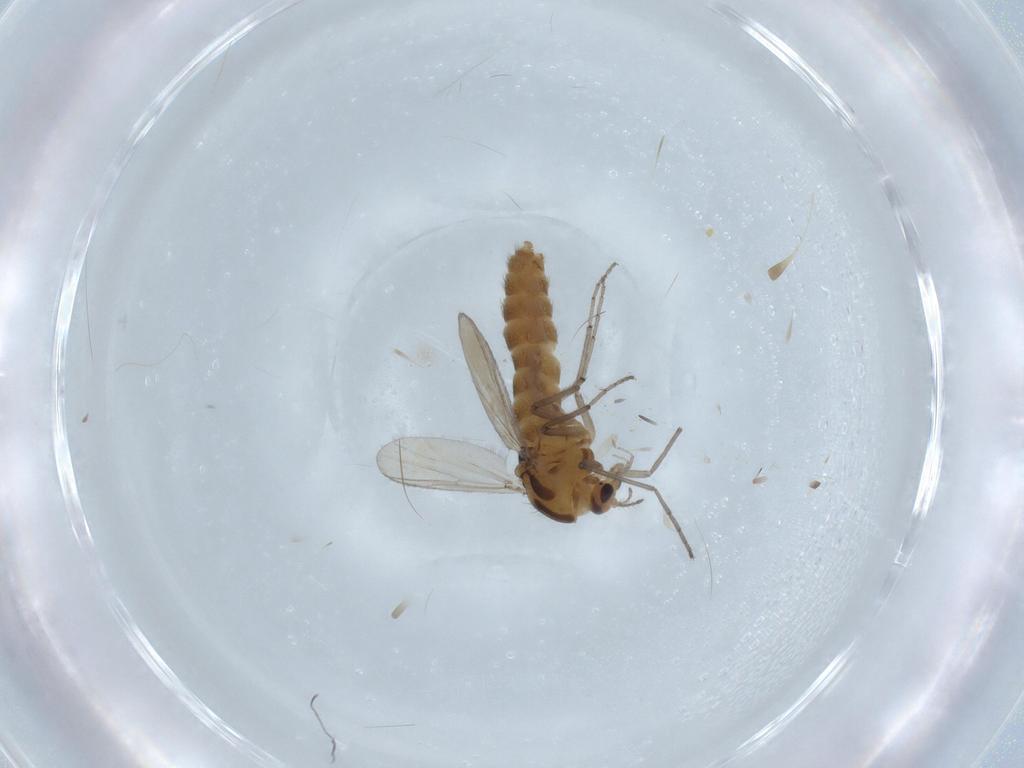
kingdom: Animalia
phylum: Arthropoda
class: Insecta
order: Diptera
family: Chironomidae
